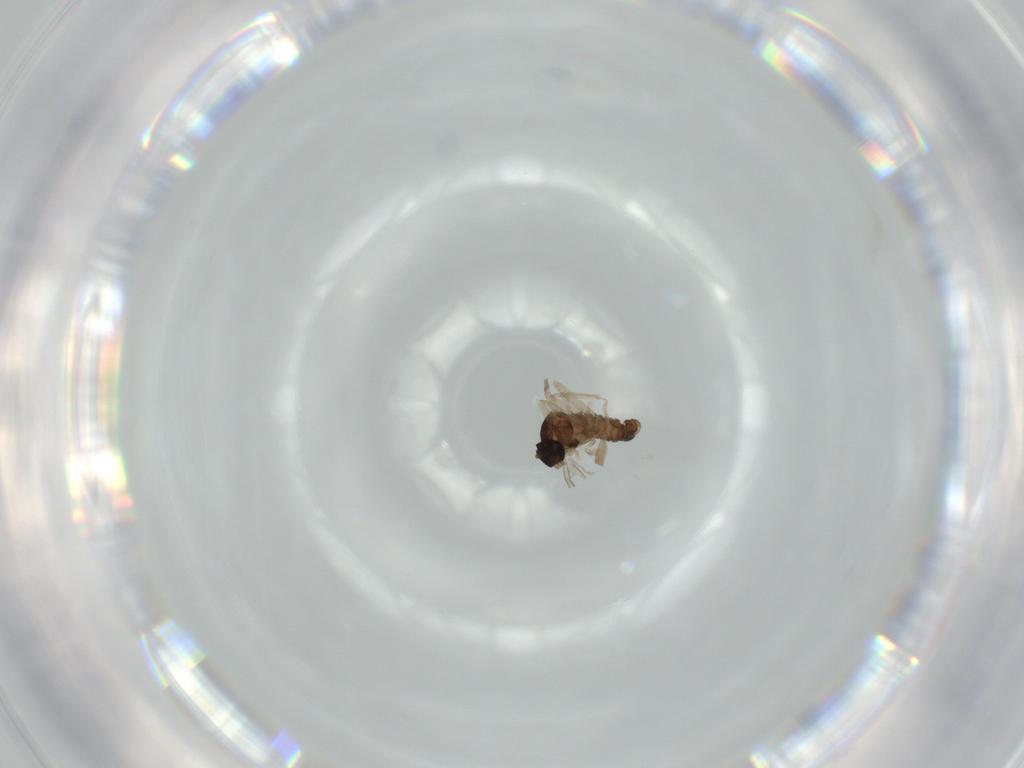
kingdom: Animalia
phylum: Arthropoda
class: Insecta
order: Diptera
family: Cecidomyiidae
